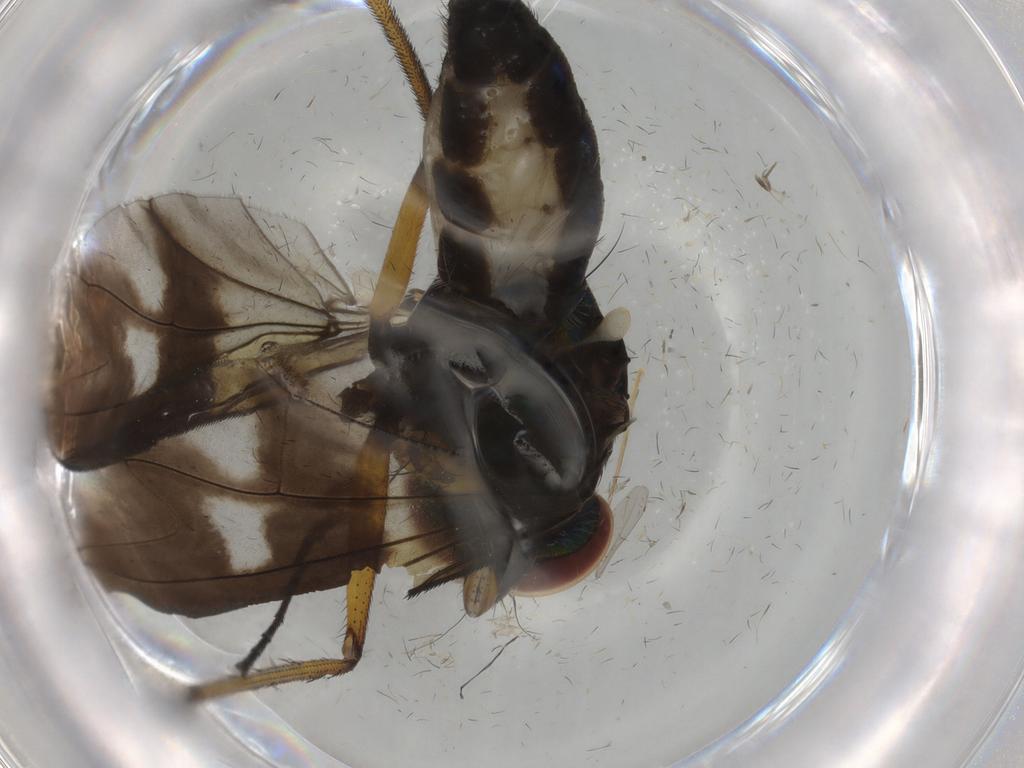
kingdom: Animalia
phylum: Arthropoda
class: Insecta
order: Diptera
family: Dolichopodidae
